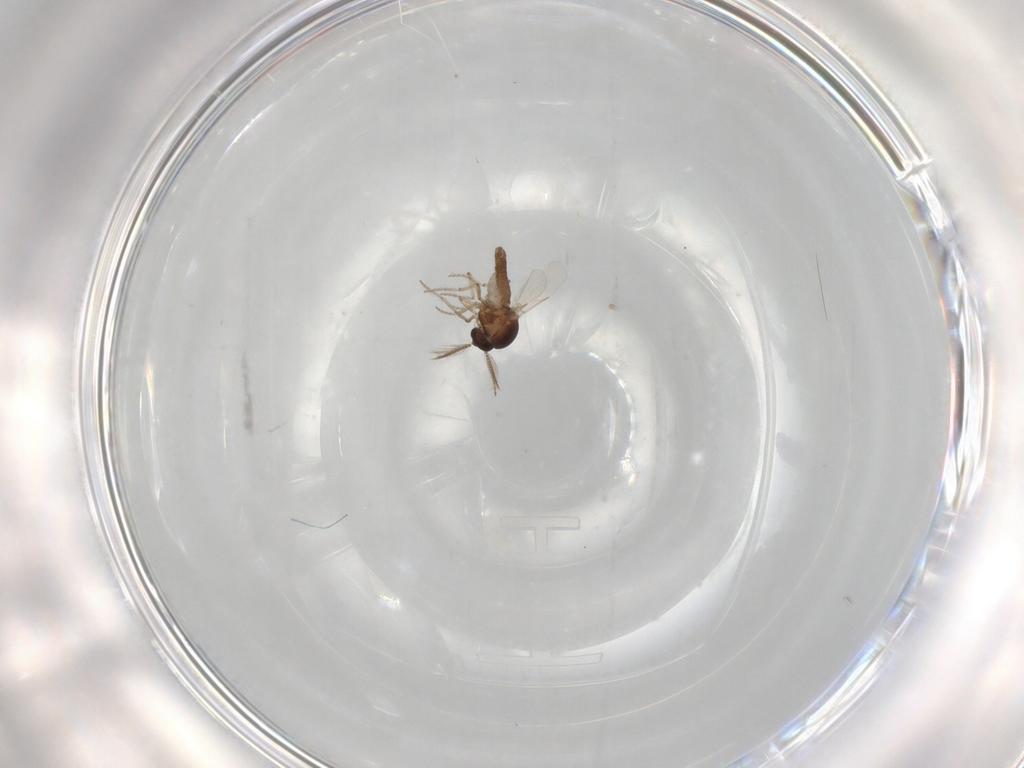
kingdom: Animalia
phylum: Arthropoda
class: Insecta
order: Diptera
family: Ceratopogonidae
